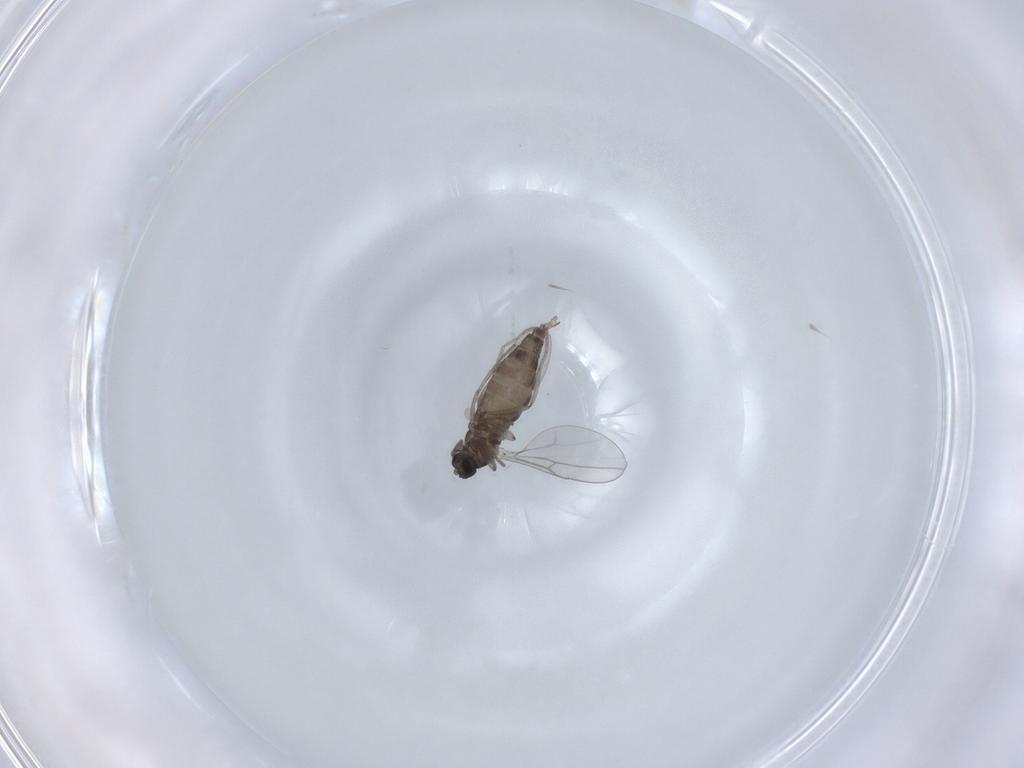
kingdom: Animalia
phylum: Arthropoda
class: Insecta
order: Diptera
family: Cecidomyiidae
